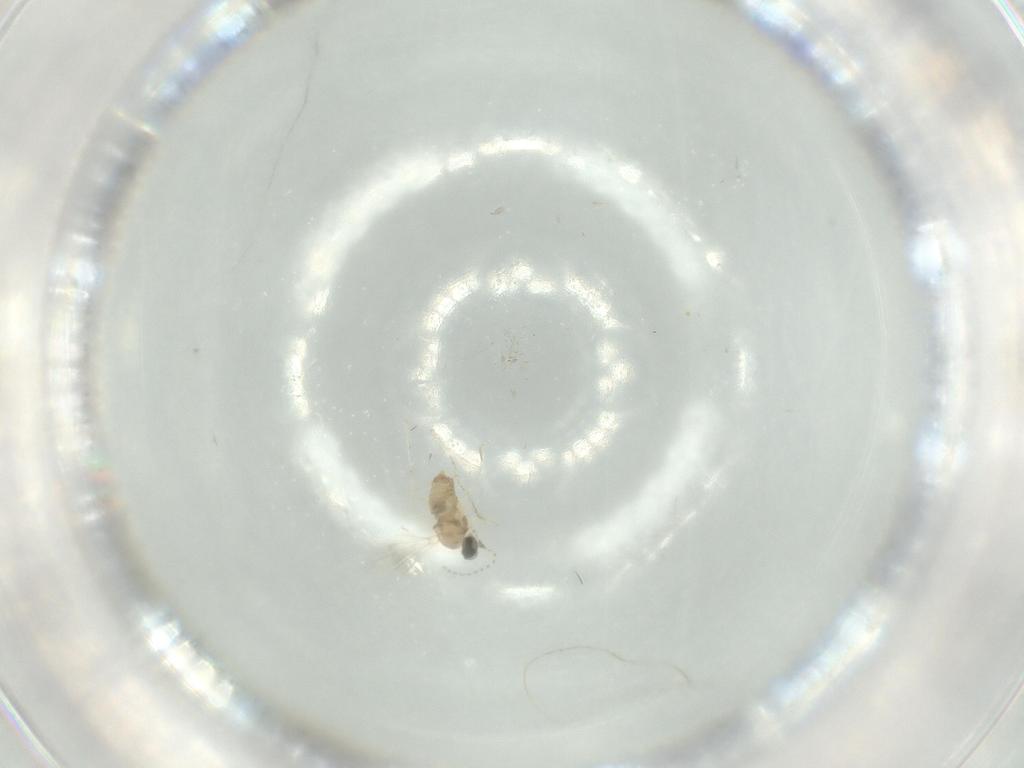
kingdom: Animalia
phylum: Arthropoda
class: Insecta
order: Diptera
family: Cecidomyiidae
